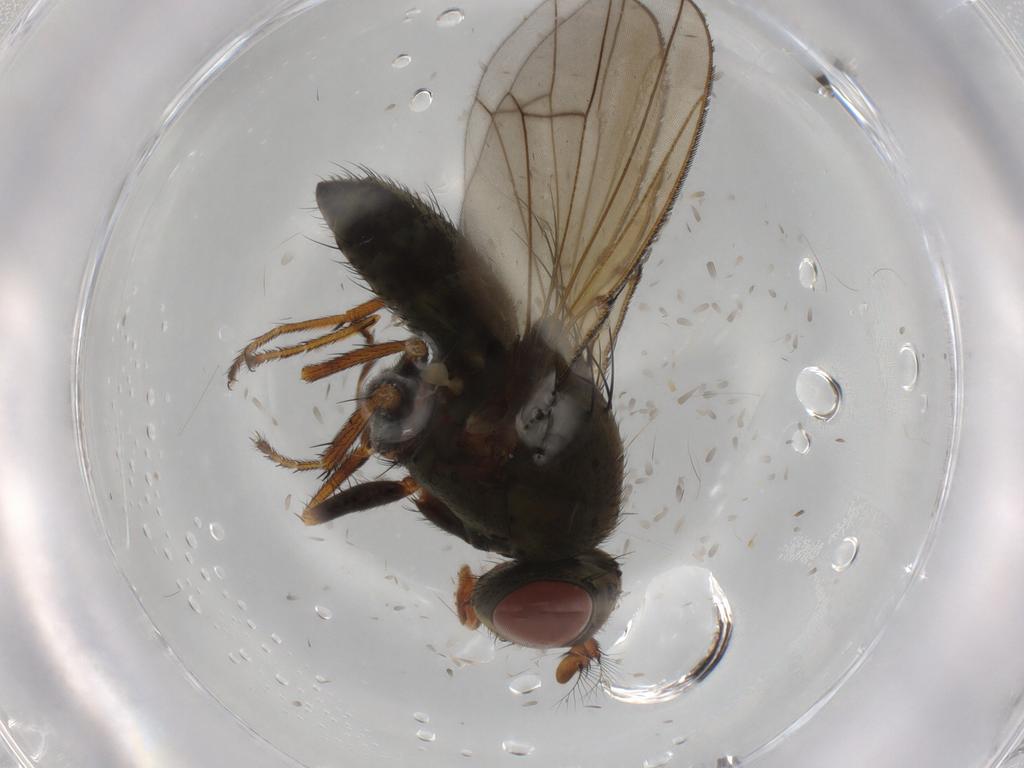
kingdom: Animalia
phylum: Arthropoda
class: Insecta
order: Diptera
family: Ephydridae
